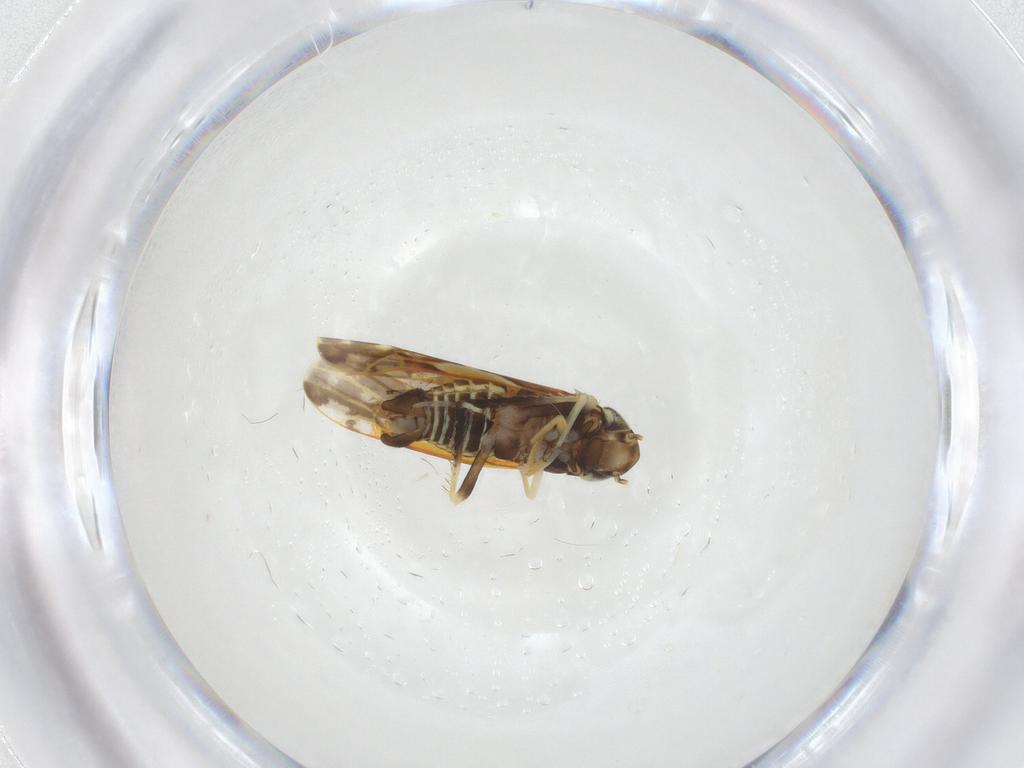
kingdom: Animalia
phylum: Arthropoda
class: Insecta
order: Hemiptera
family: Cicadellidae
